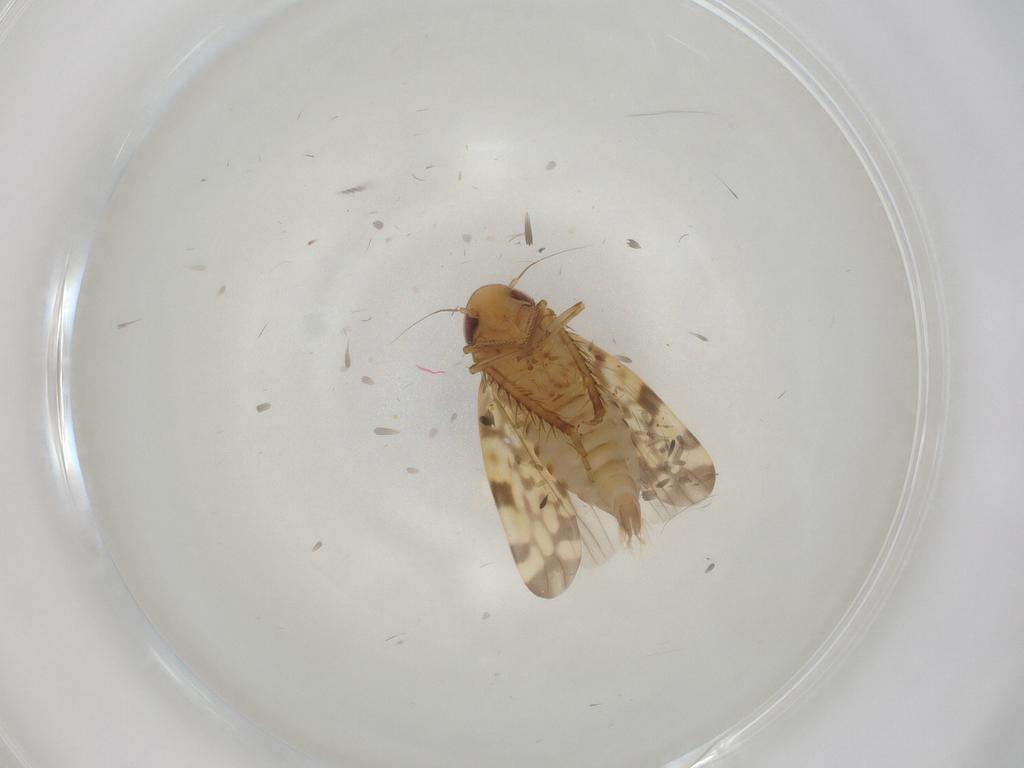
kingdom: Animalia
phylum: Arthropoda
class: Insecta
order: Hemiptera
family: Cicadellidae
